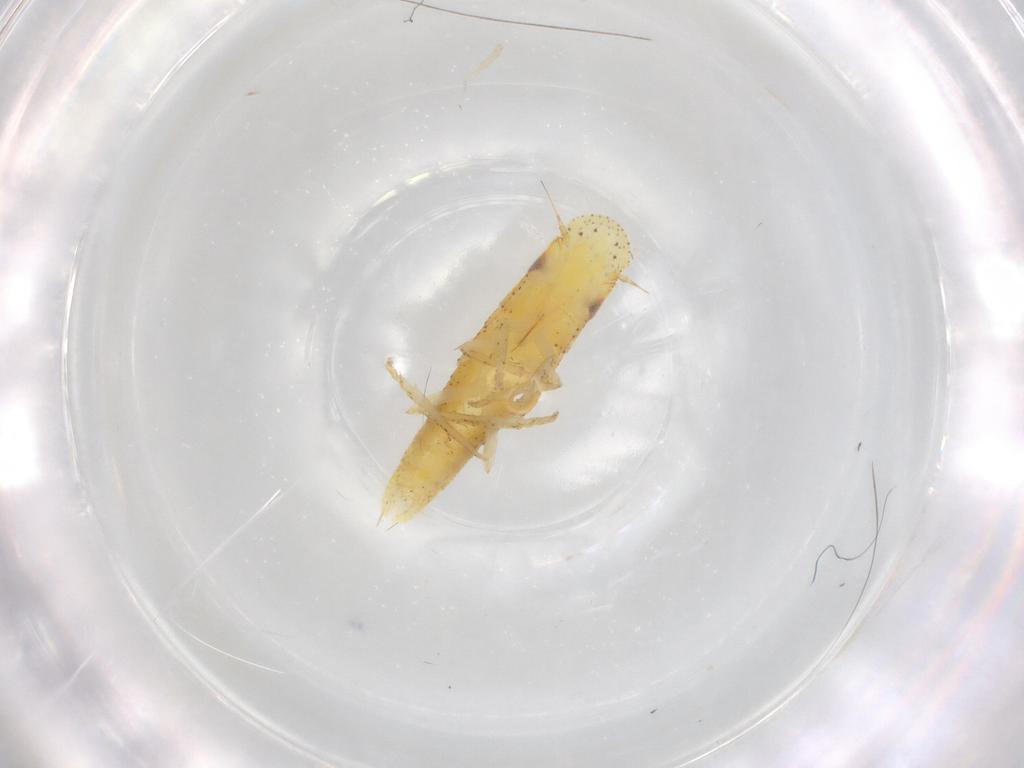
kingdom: Animalia
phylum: Arthropoda
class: Insecta
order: Hemiptera
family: Cicadellidae
